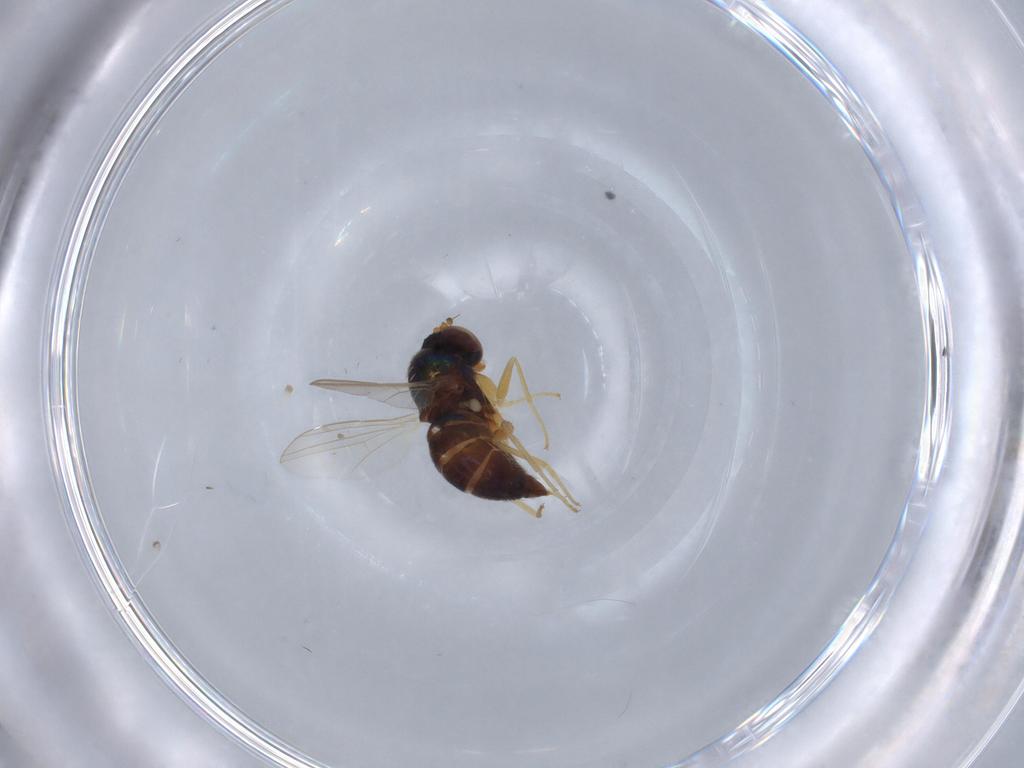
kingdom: Animalia
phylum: Arthropoda
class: Insecta
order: Diptera
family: Dolichopodidae
